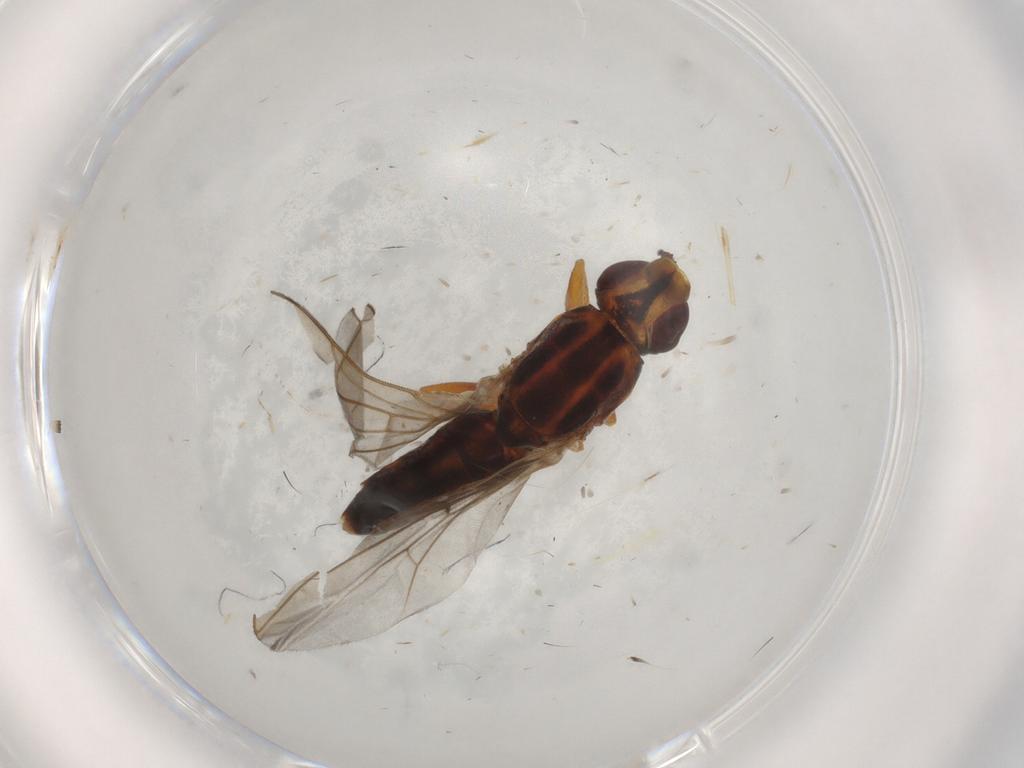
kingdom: Animalia
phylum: Arthropoda
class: Insecta
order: Diptera
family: Chloropidae
